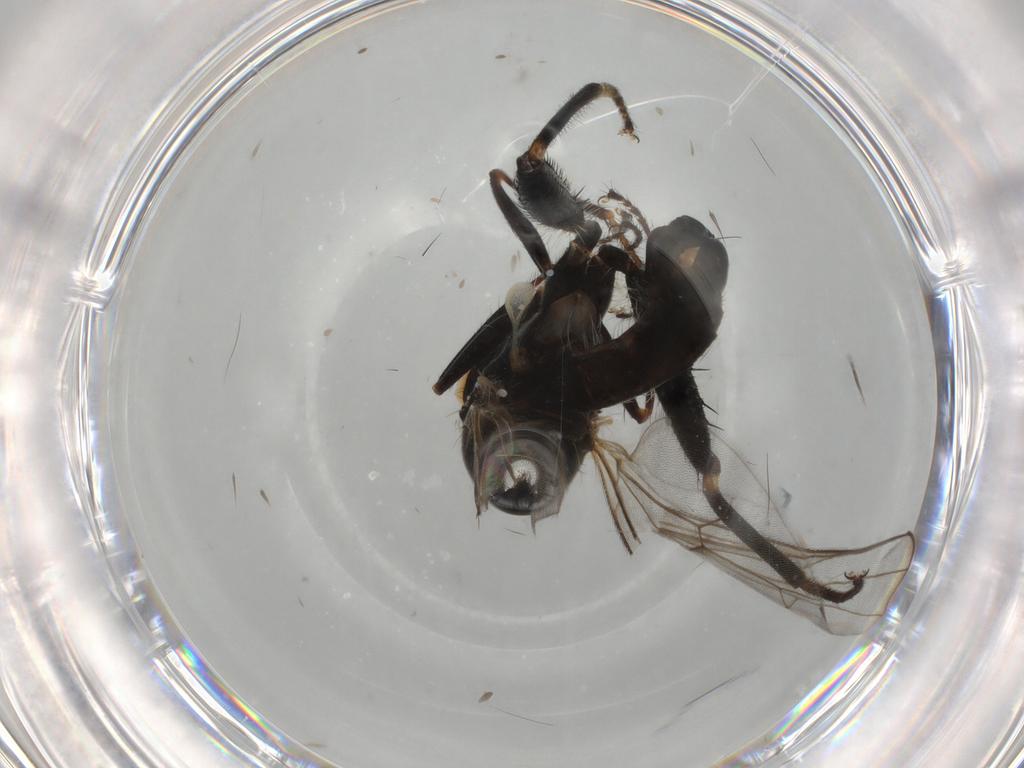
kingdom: Animalia
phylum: Arthropoda
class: Insecta
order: Diptera
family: Hybotidae
